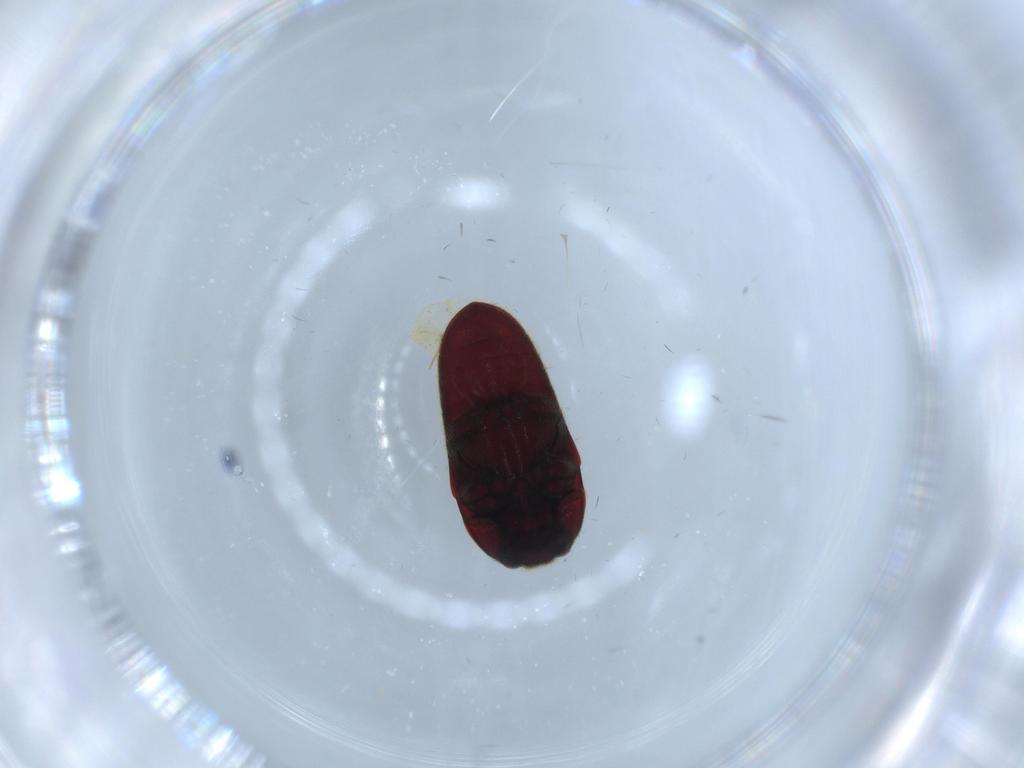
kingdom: Animalia
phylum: Arthropoda
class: Insecta
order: Coleoptera
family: Throscidae
